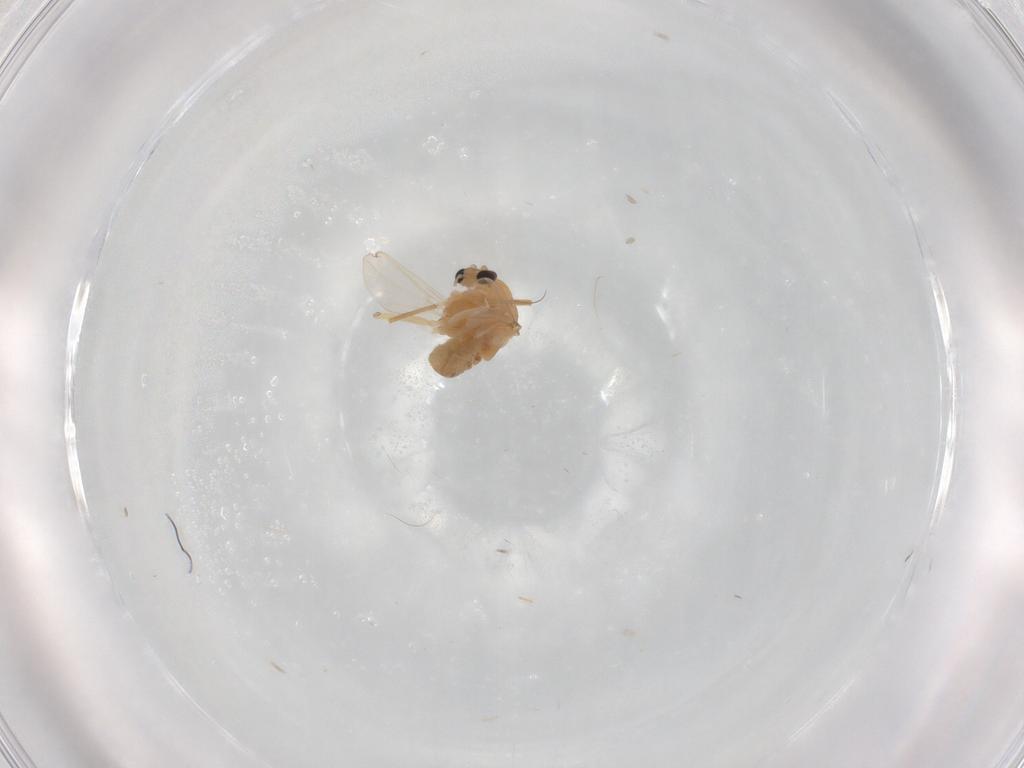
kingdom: Animalia
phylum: Arthropoda
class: Insecta
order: Diptera
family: Chironomidae
